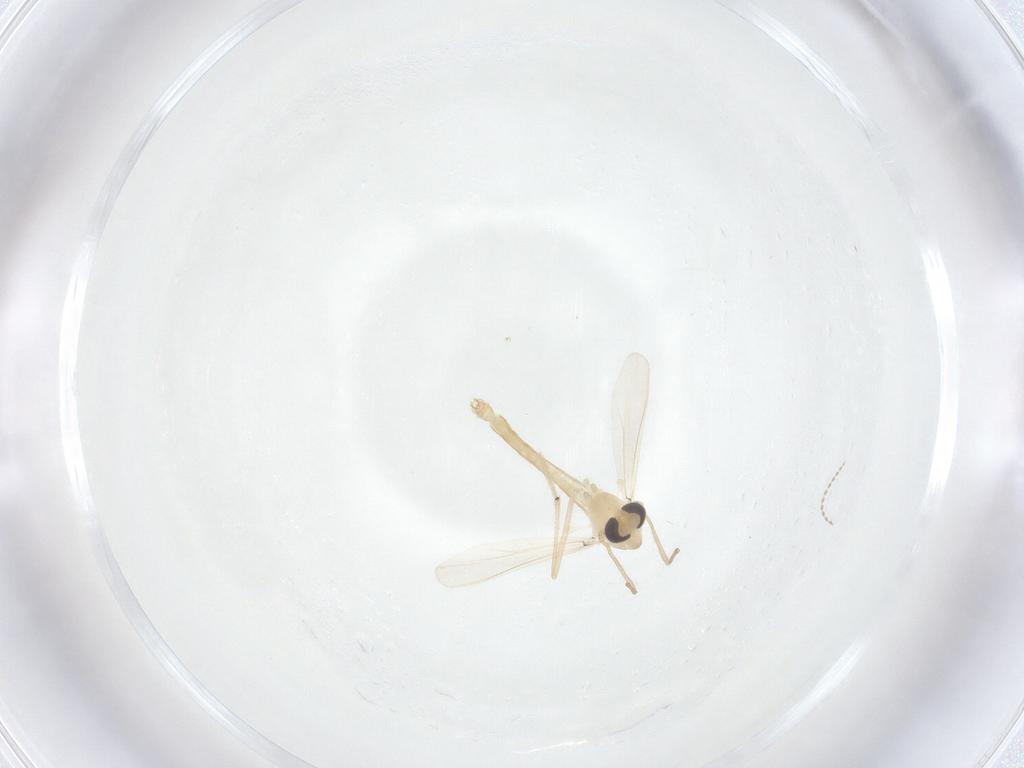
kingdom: Animalia
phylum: Arthropoda
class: Insecta
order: Diptera
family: Cecidomyiidae
